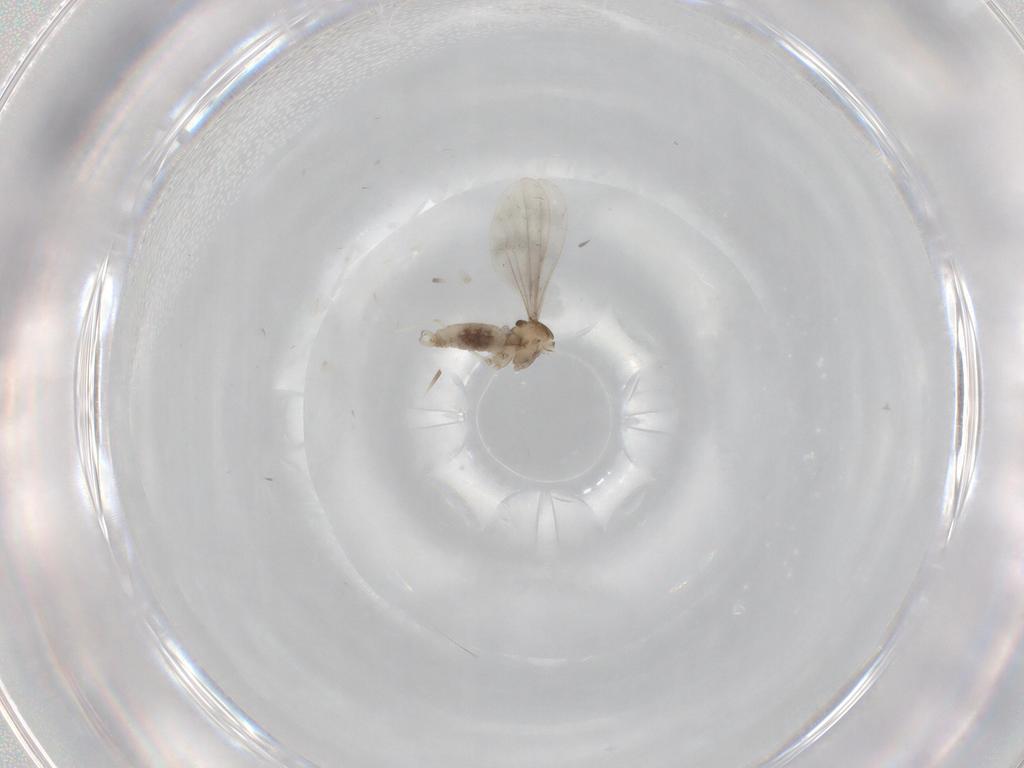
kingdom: Animalia
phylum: Arthropoda
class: Insecta
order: Diptera
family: Cecidomyiidae
